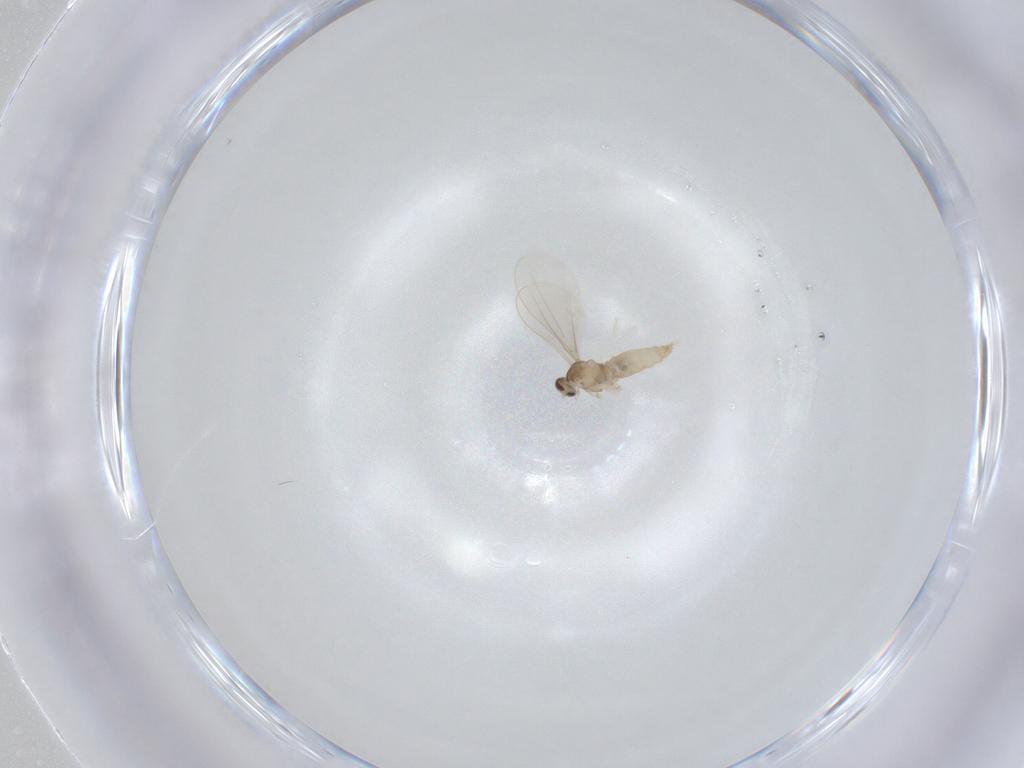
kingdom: Animalia
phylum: Arthropoda
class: Insecta
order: Diptera
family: Cecidomyiidae
